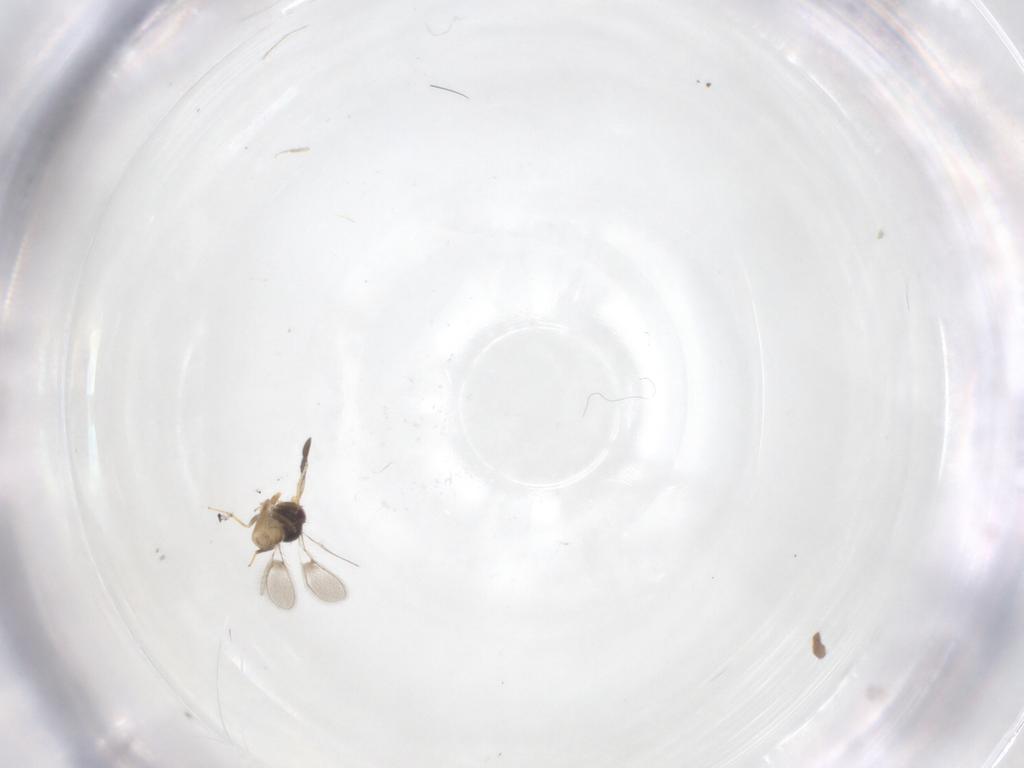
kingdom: Animalia
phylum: Arthropoda
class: Insecta
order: Hymenoptera
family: Mymaridae
